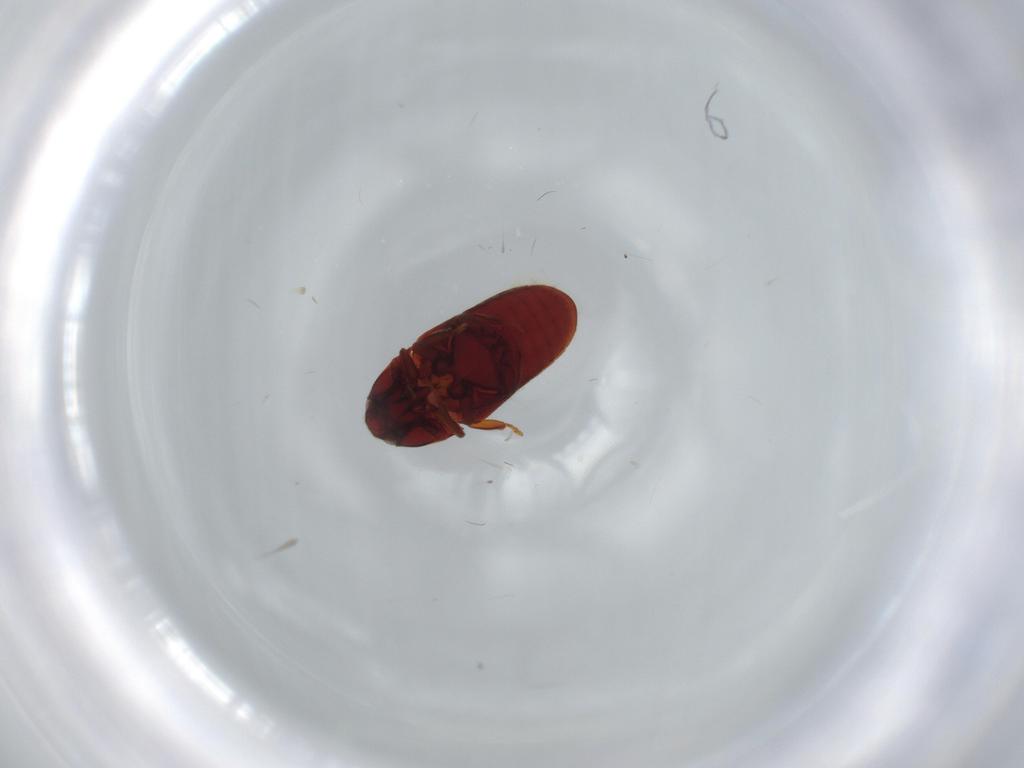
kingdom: Animalia
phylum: Arthropoda
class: Insecta
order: Coleoptera
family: Throscidae
